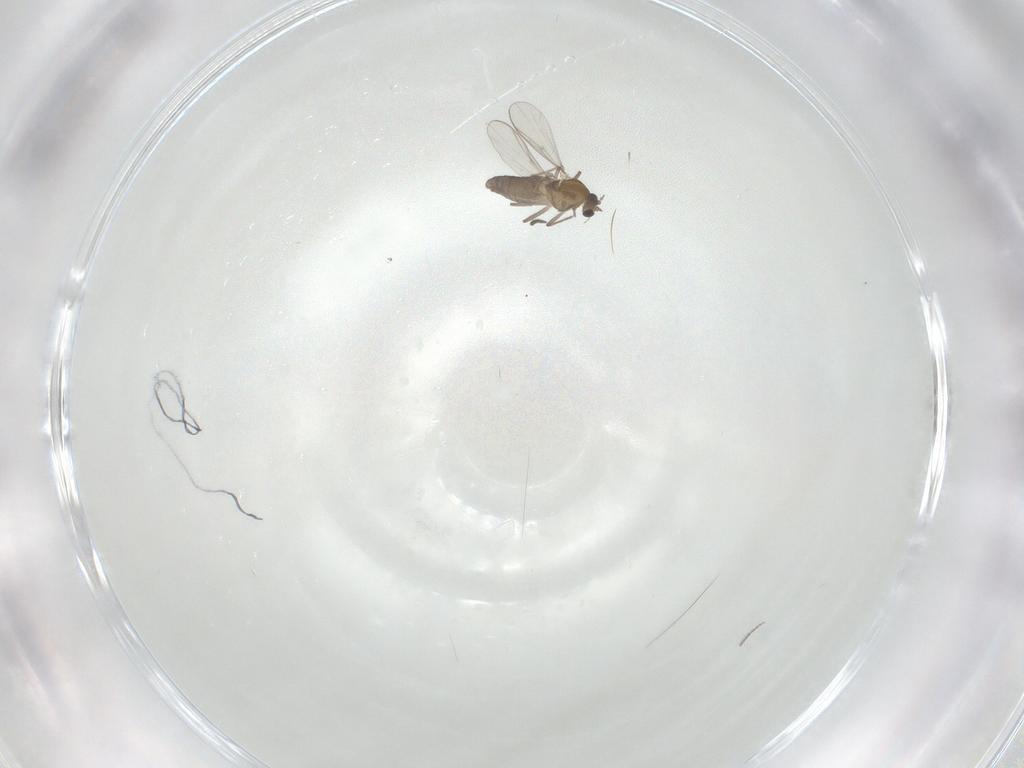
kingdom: Animalia
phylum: Arthropoda
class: Insecta
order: Diptera
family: Chironomidae
